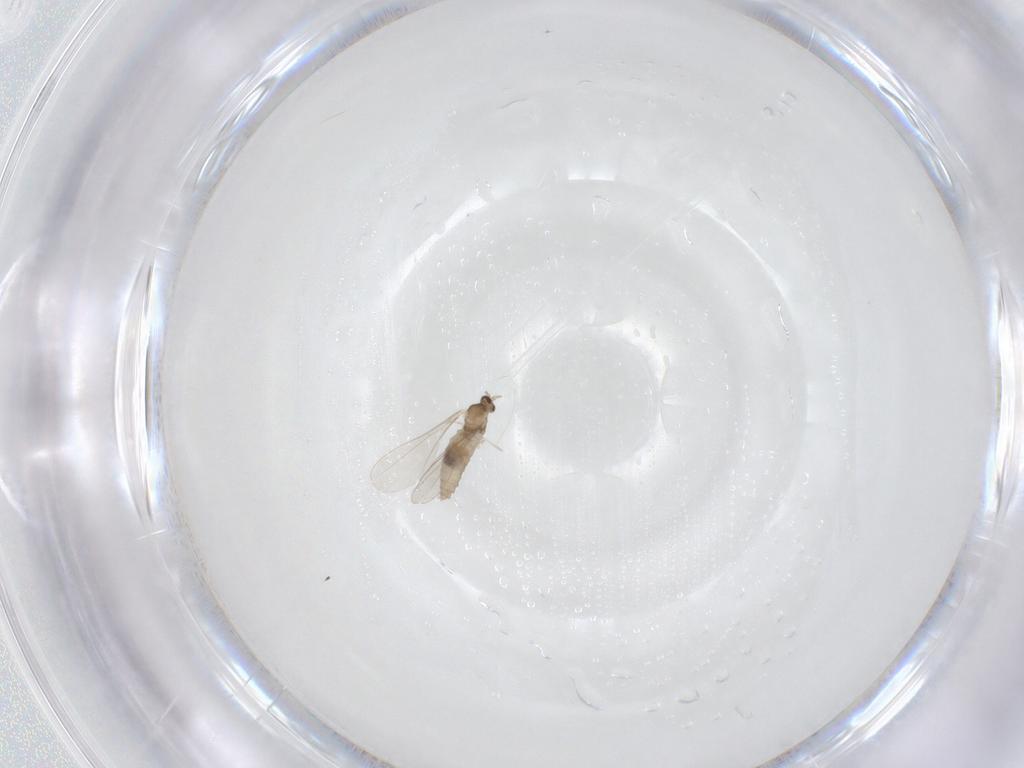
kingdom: Animalia
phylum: Arthropoda
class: Insecta
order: Diptera
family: Cecidomyiidae
